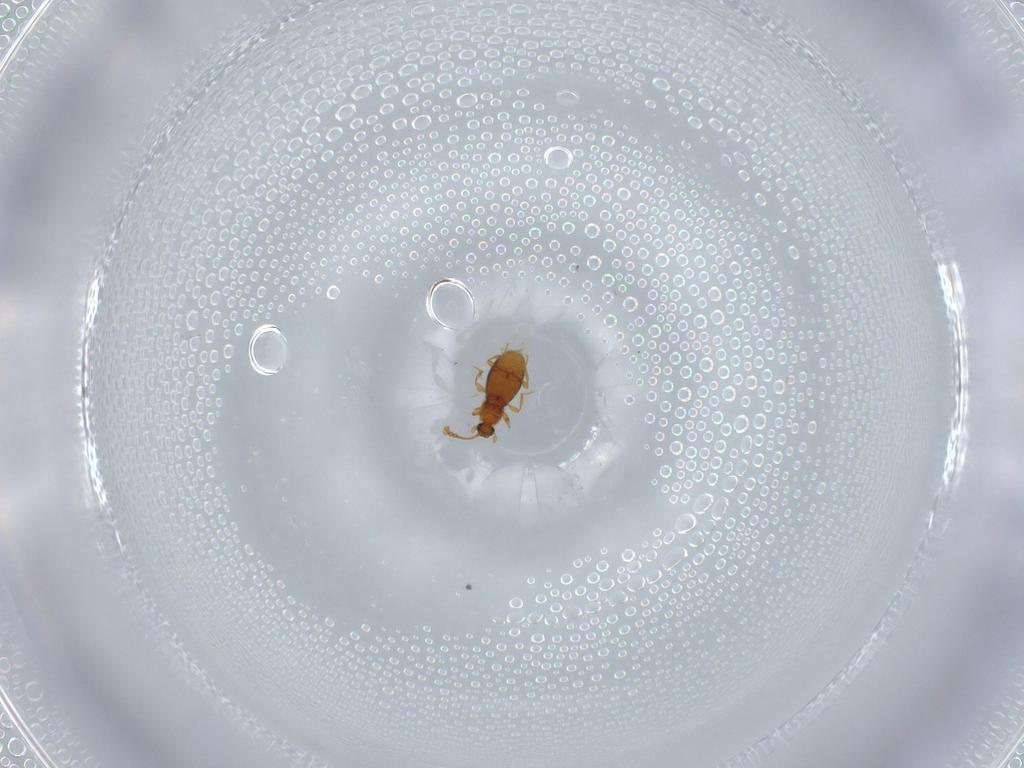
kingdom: Animalia
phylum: Arthropoda
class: Insecta
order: Coleoptera
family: Staphylinidae
